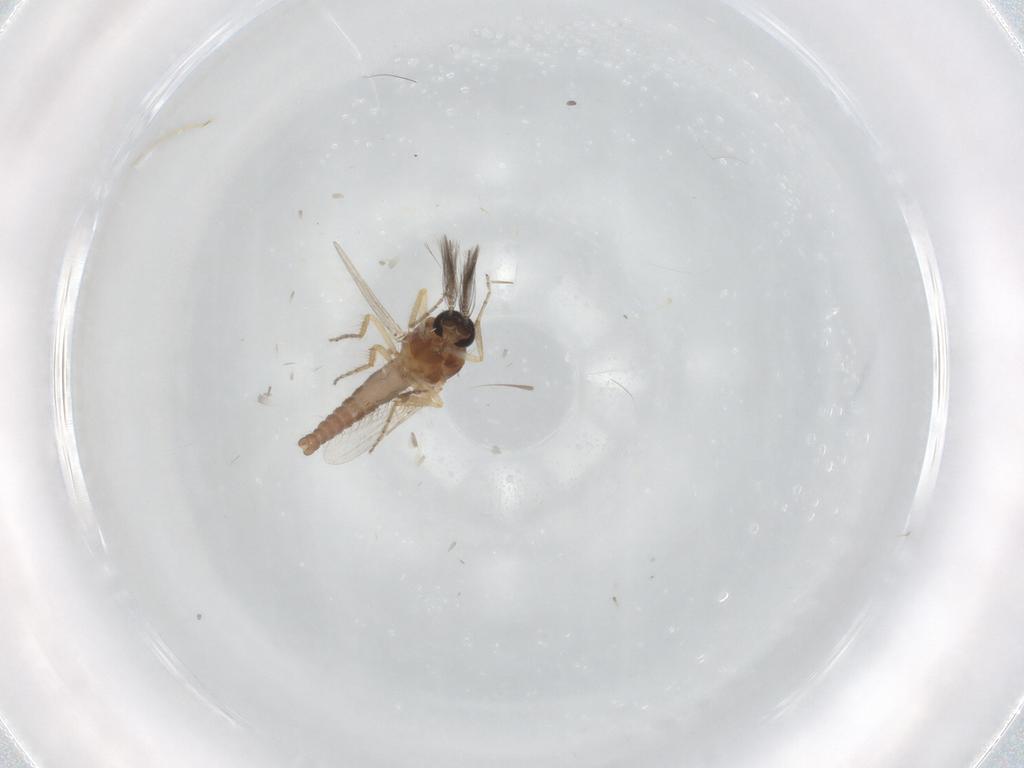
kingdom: Animalia
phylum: Arthropoda
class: Insecta
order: Diptera
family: Ceratopogonidae
